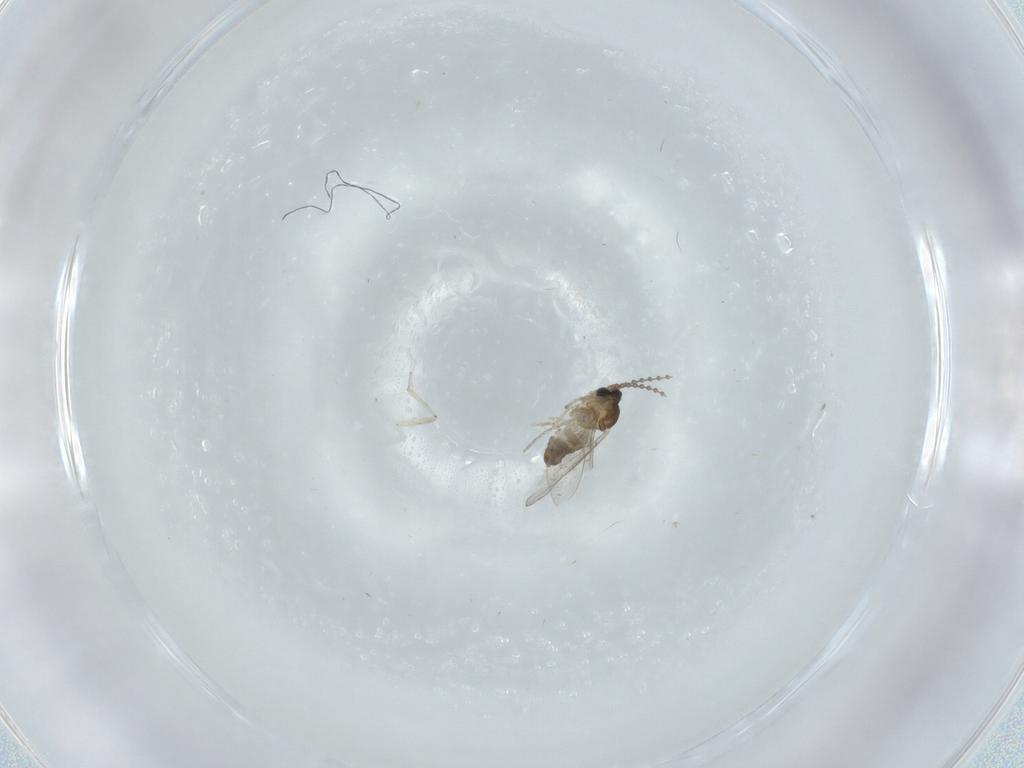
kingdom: Animalia
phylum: Arthropoda
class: Insecta
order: Diptera
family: Cecidomyiidae
